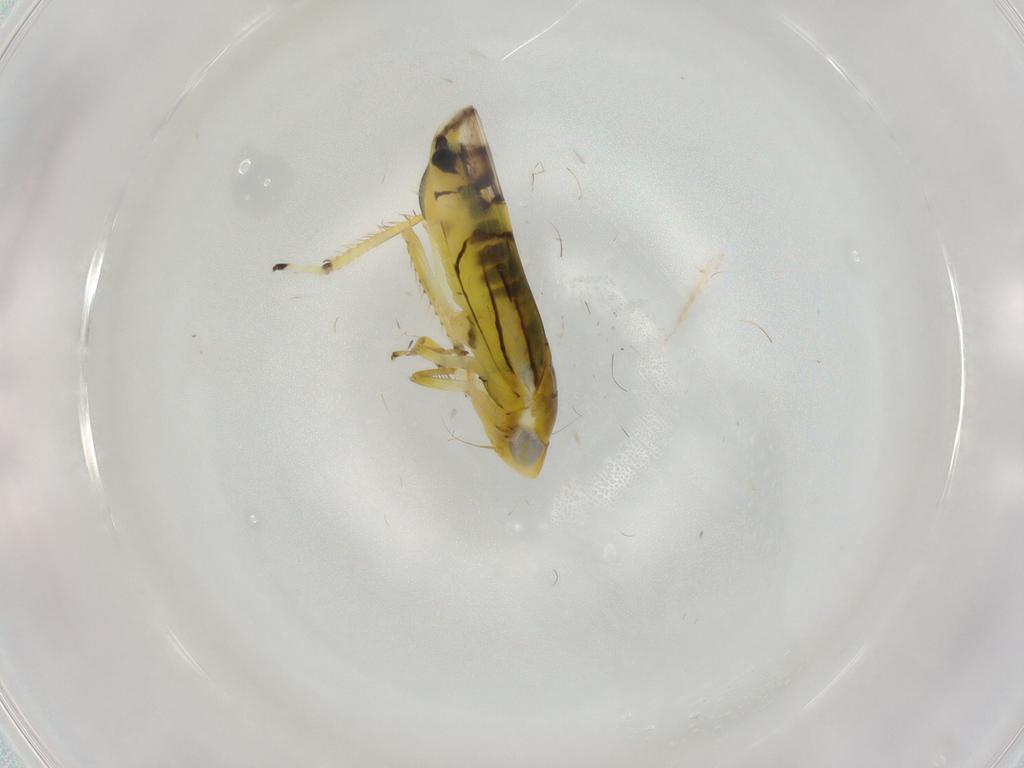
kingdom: Animalia
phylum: Arthropoda
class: Insecta
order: Hemiptera
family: Cicadellidae
